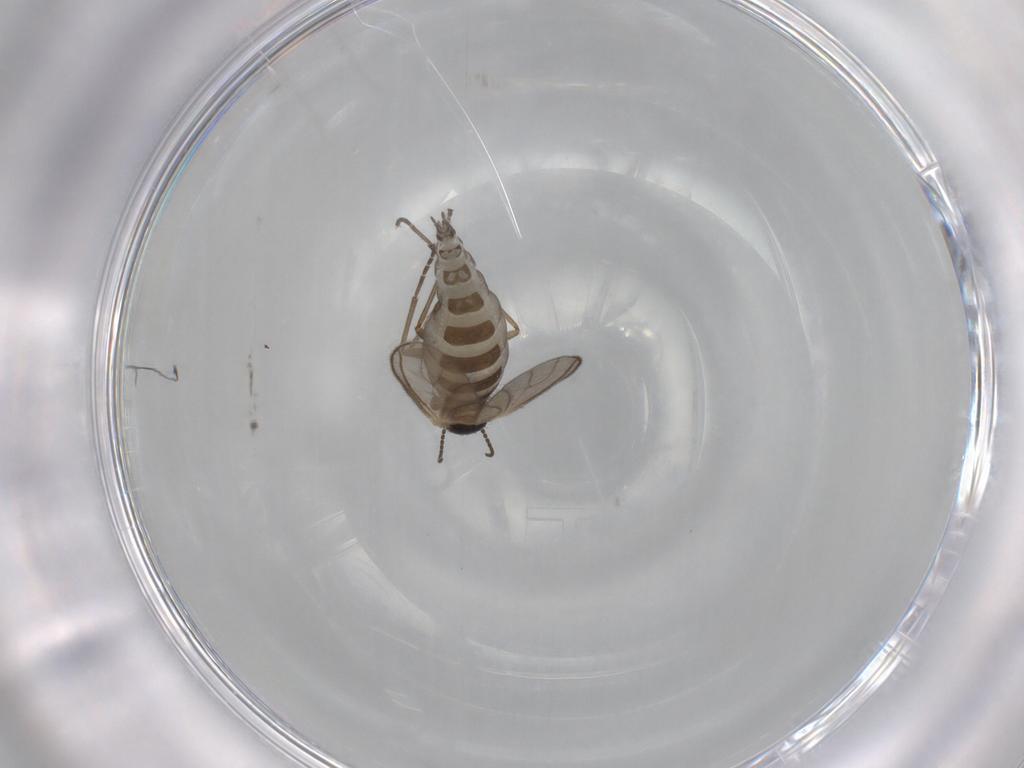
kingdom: Animalia
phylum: Arthropoda
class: Insecta
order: Diptera
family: Sciaridae
